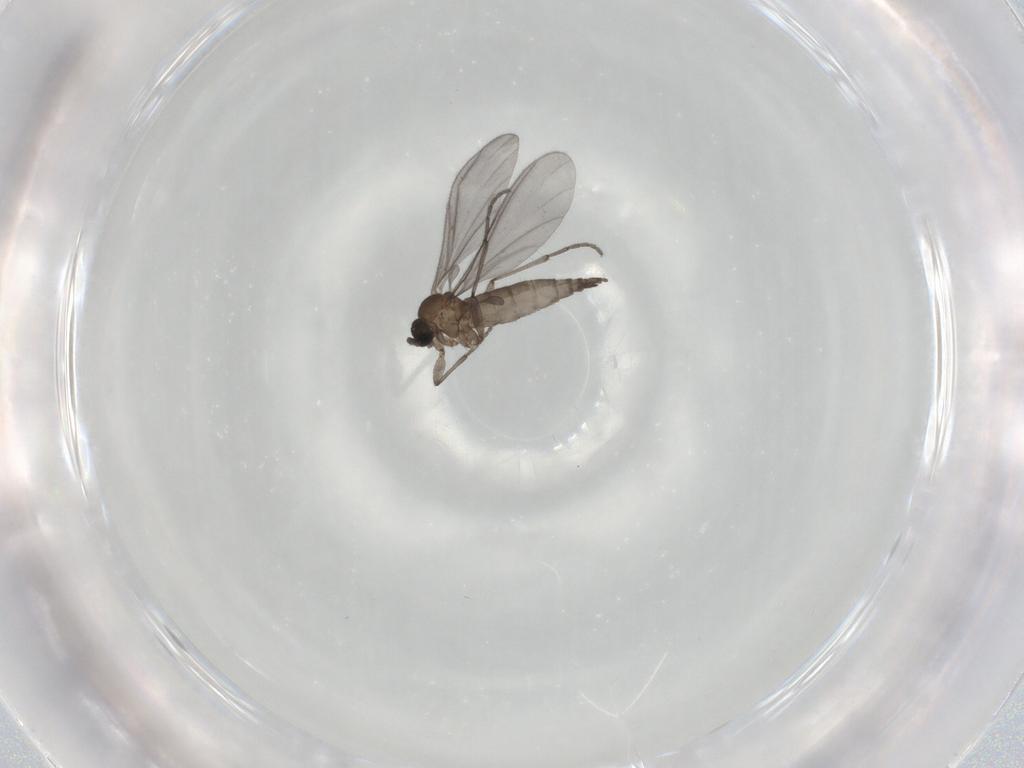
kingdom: Animalia
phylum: Arthropoda
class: Insecta
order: Diptera
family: Sciaridae
